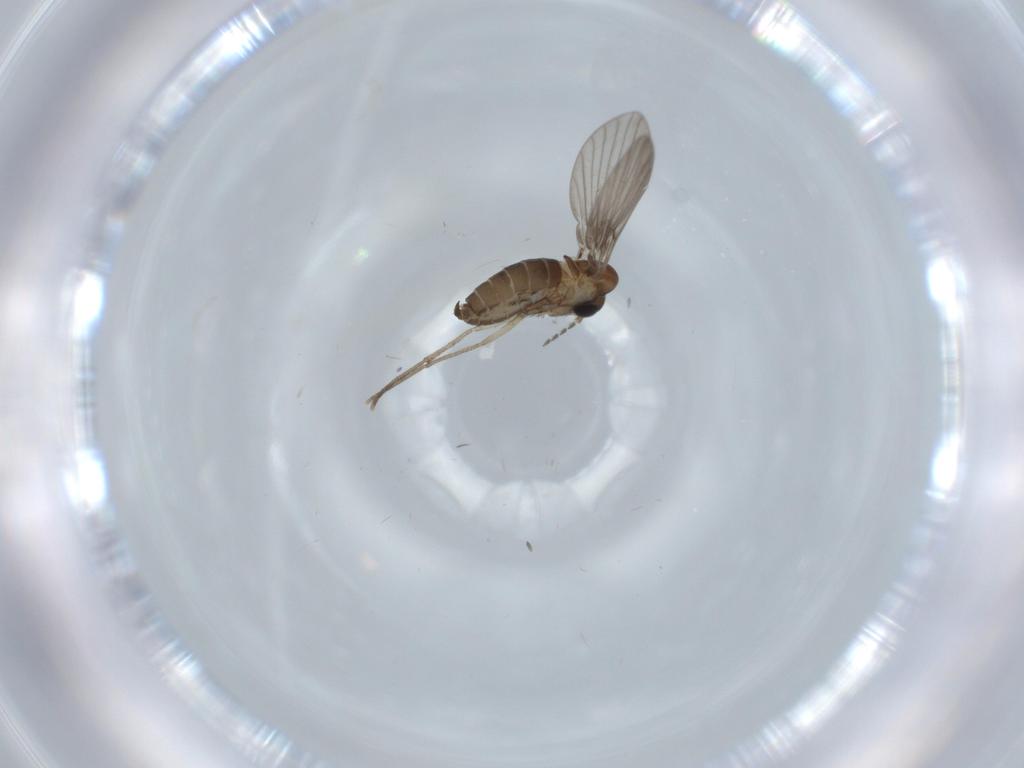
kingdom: Animalia
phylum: Arthropoda
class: Insecta
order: Diptera
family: Psychodidae
